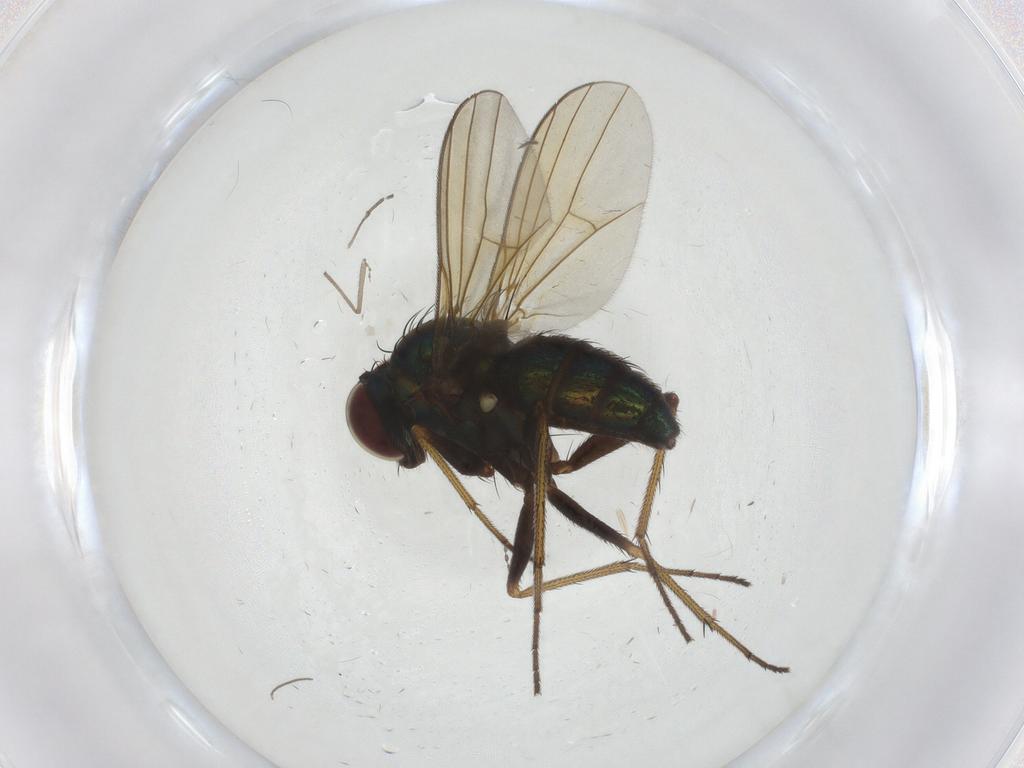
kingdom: Animalia
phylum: Arthropoda
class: Insecta
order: Diptera
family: Dolichopodidae
